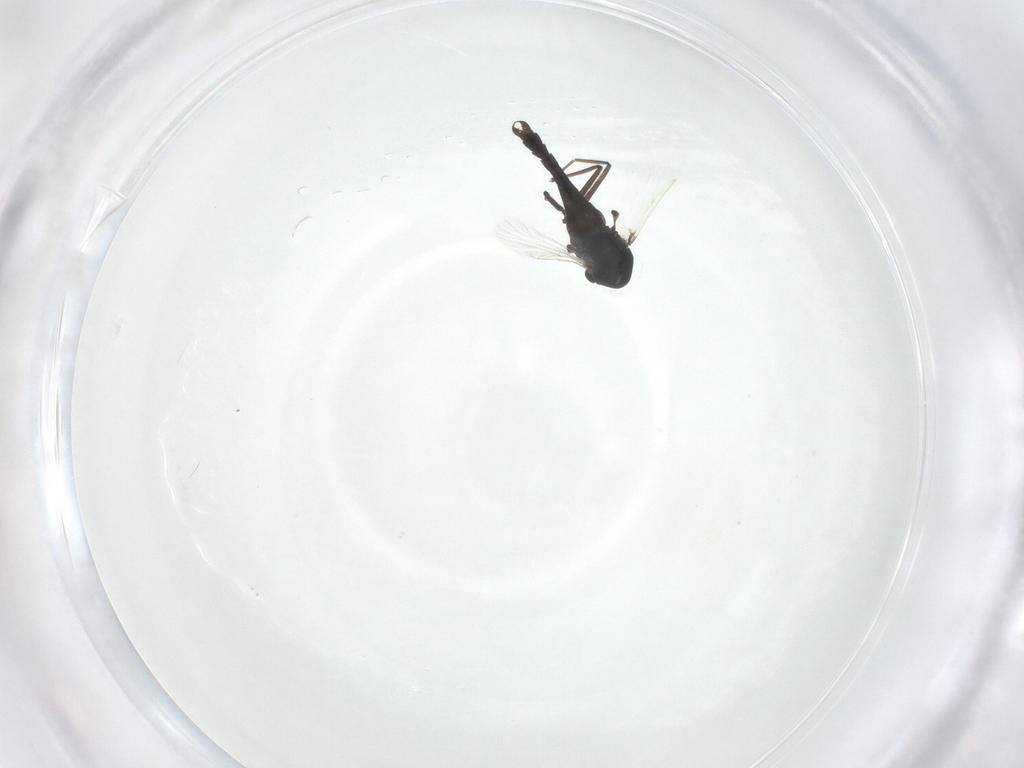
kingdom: Animalia
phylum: Arthropoda
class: Insecta
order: Diptera
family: Chironomidae
